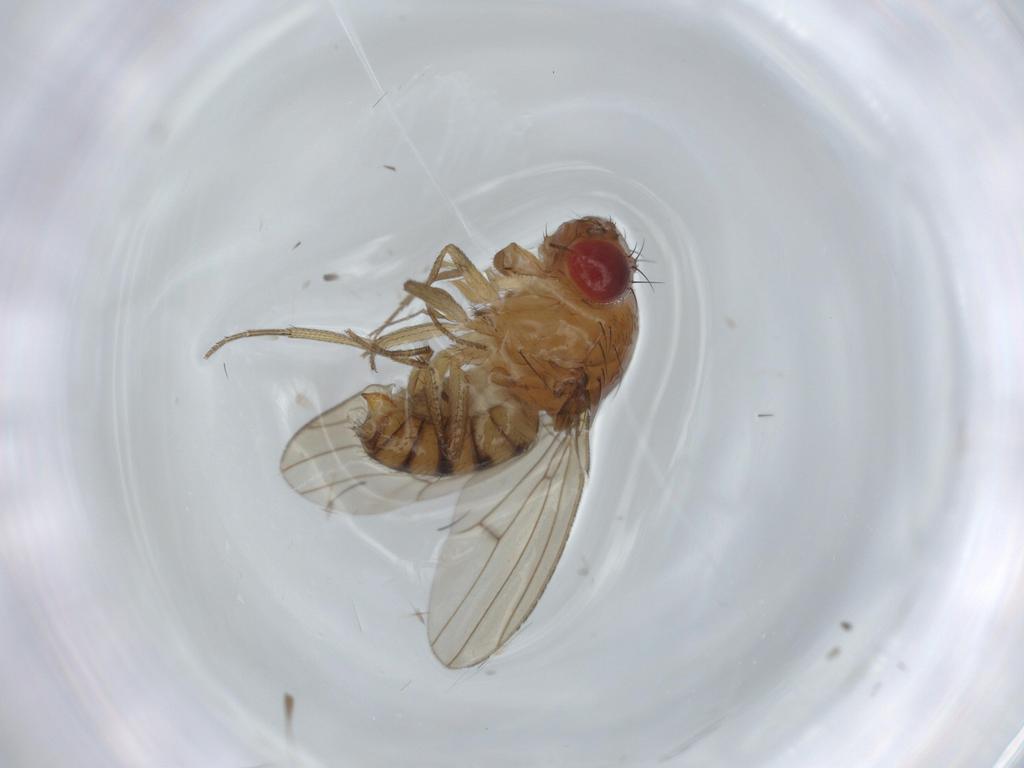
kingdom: Animalia
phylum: Arthropoda
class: Insecta
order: Diptera
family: Drosophilidae
